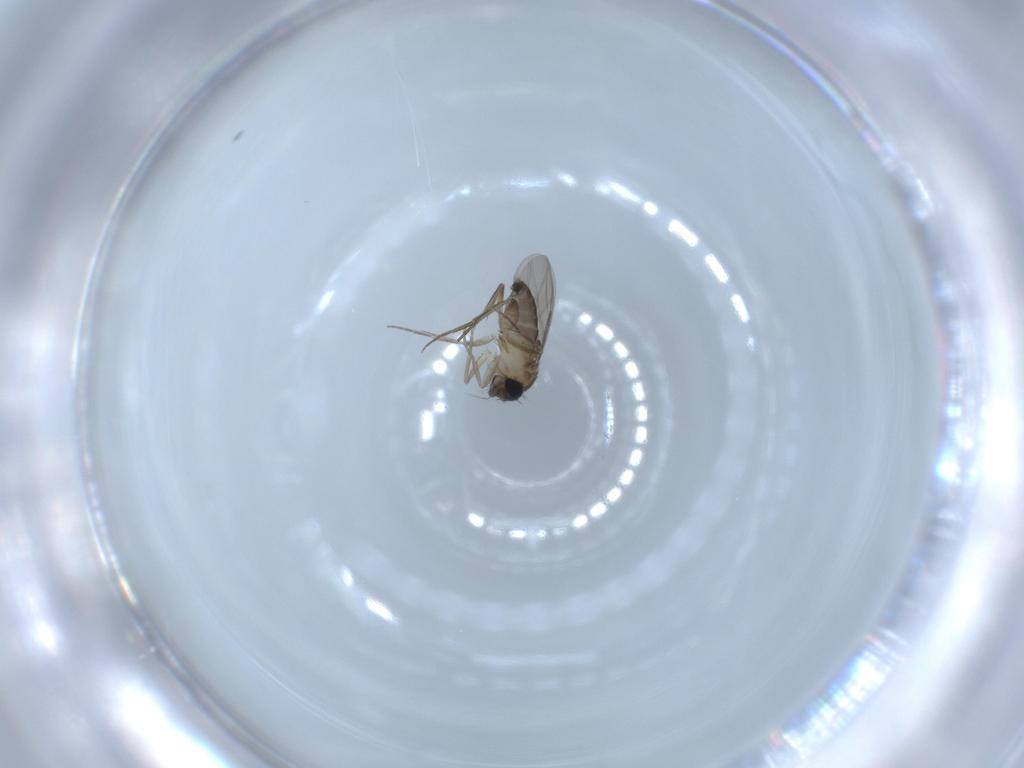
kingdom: Animalia
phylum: Arthropoda
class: Insecta
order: Diptera
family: Phoridae
